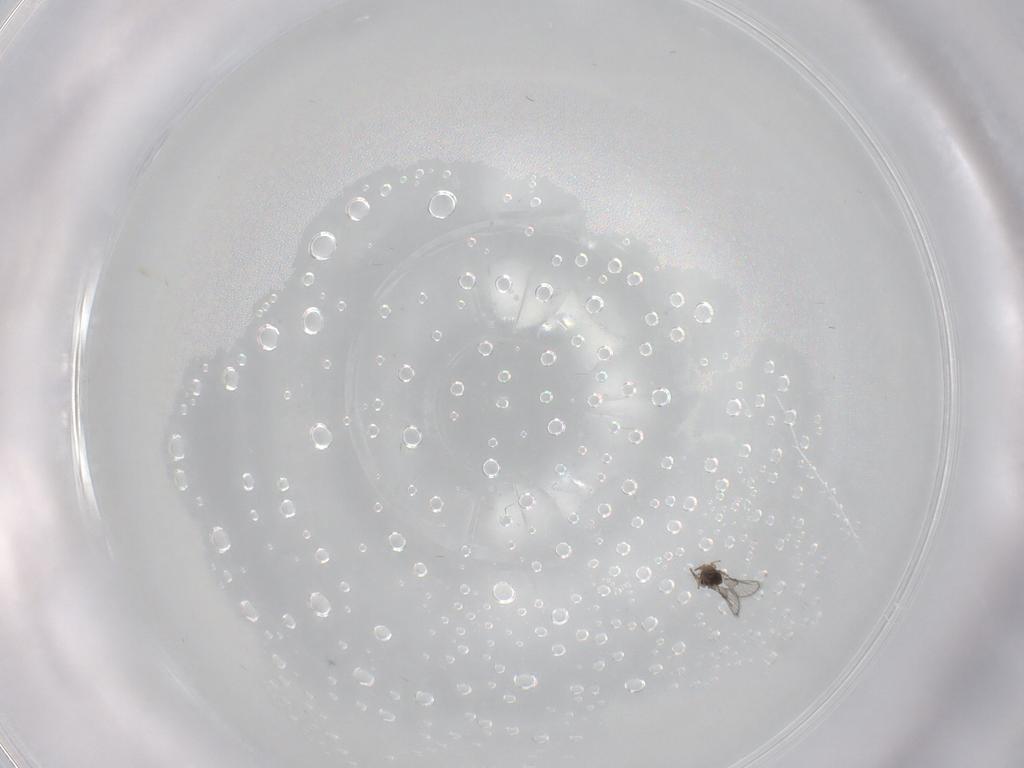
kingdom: Animalia
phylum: Arthropoda
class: Insecta
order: Hymenoptera
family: Trichogrammatidae
